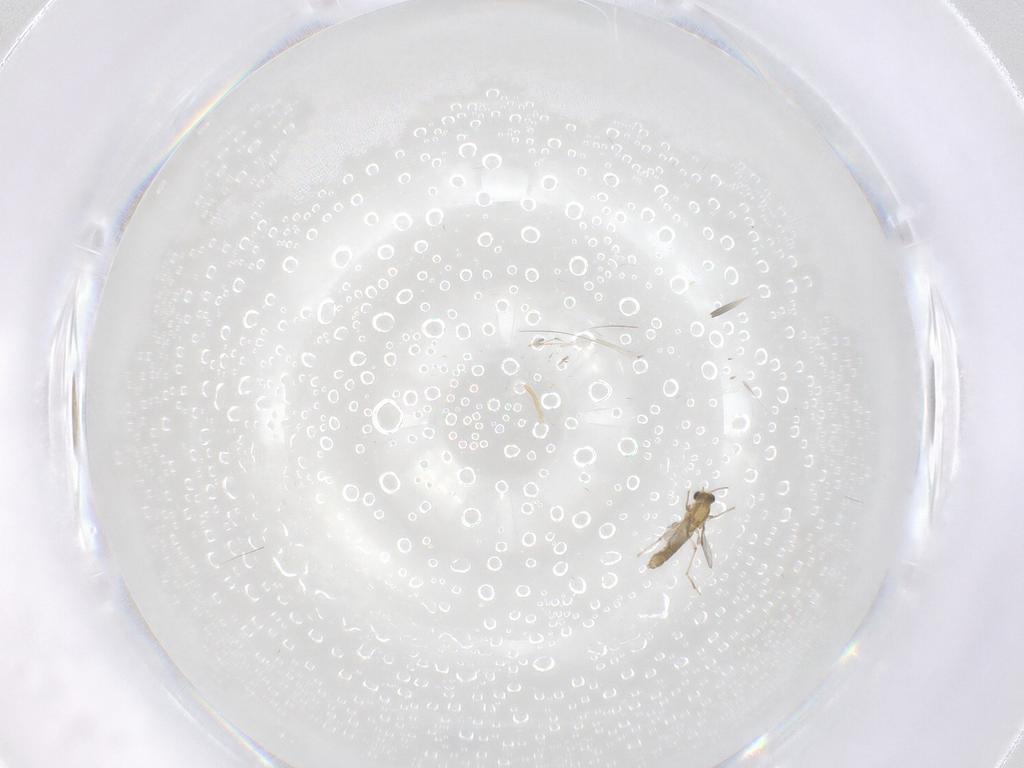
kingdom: Animalia
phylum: Arthropoda
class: Insecta
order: Diptera
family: Chironomidae
